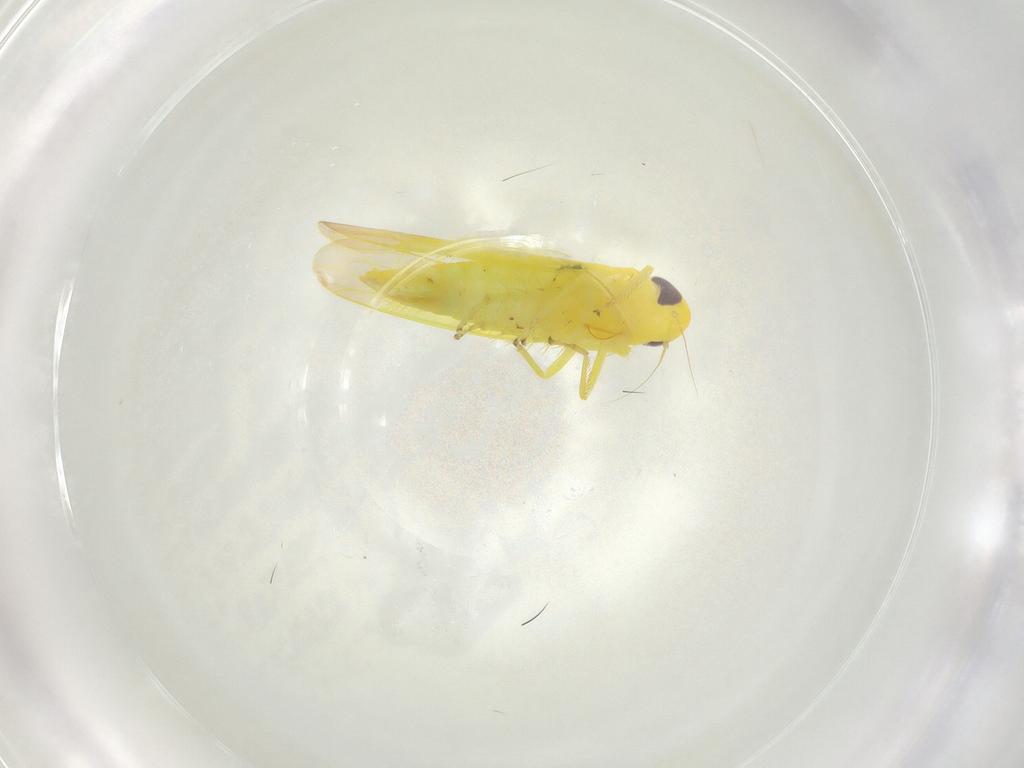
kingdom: Animalia
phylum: Arthropoda
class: Insecta
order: Hemiptera
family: Cicadellidae
